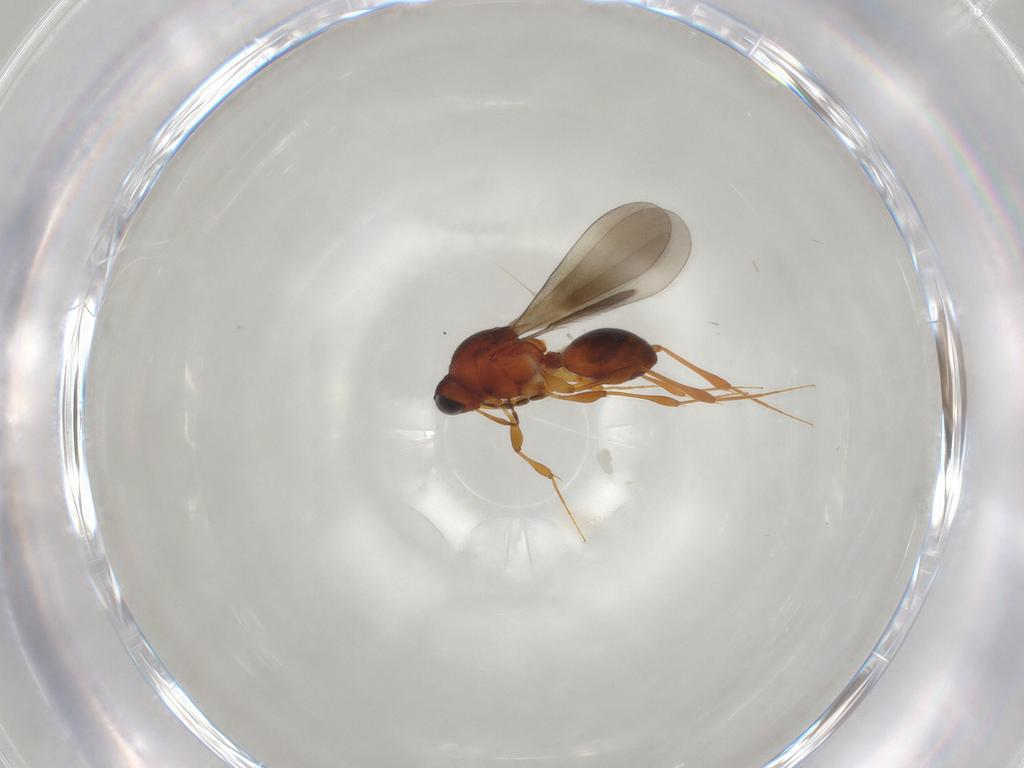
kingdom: Animalia
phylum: Arthropoda
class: Insecta
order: Hymenoptera
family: Platygastridae
